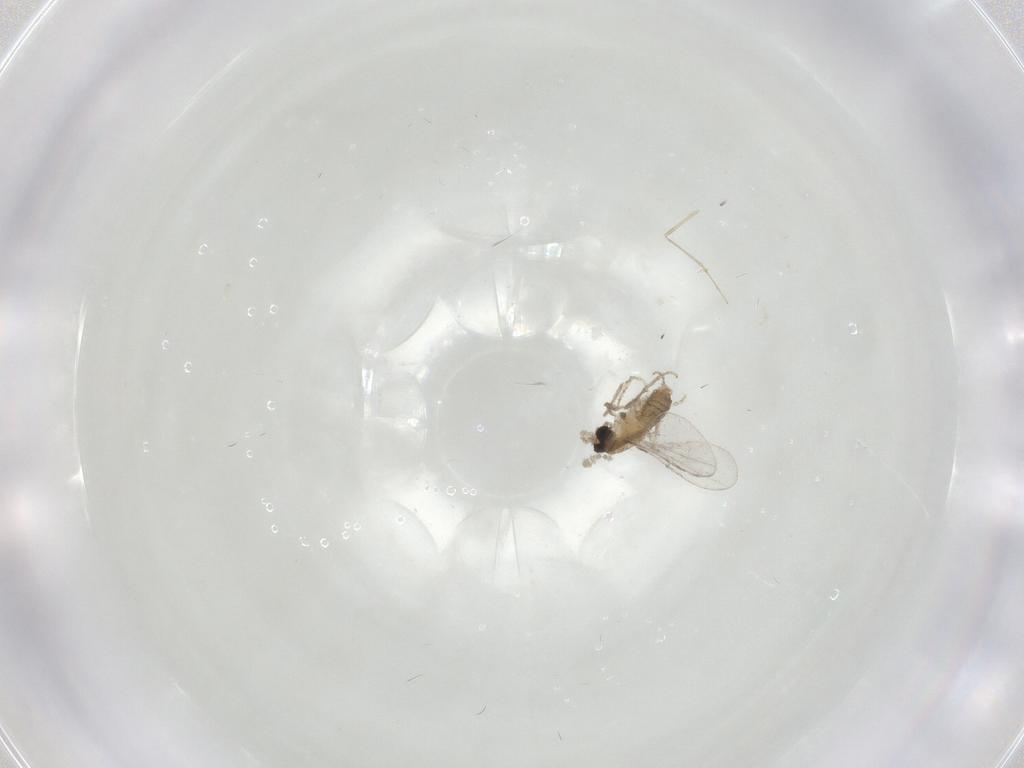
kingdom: Animalia
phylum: Arthropoda
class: Insecta
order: Diptera
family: Cecidomyiidae
